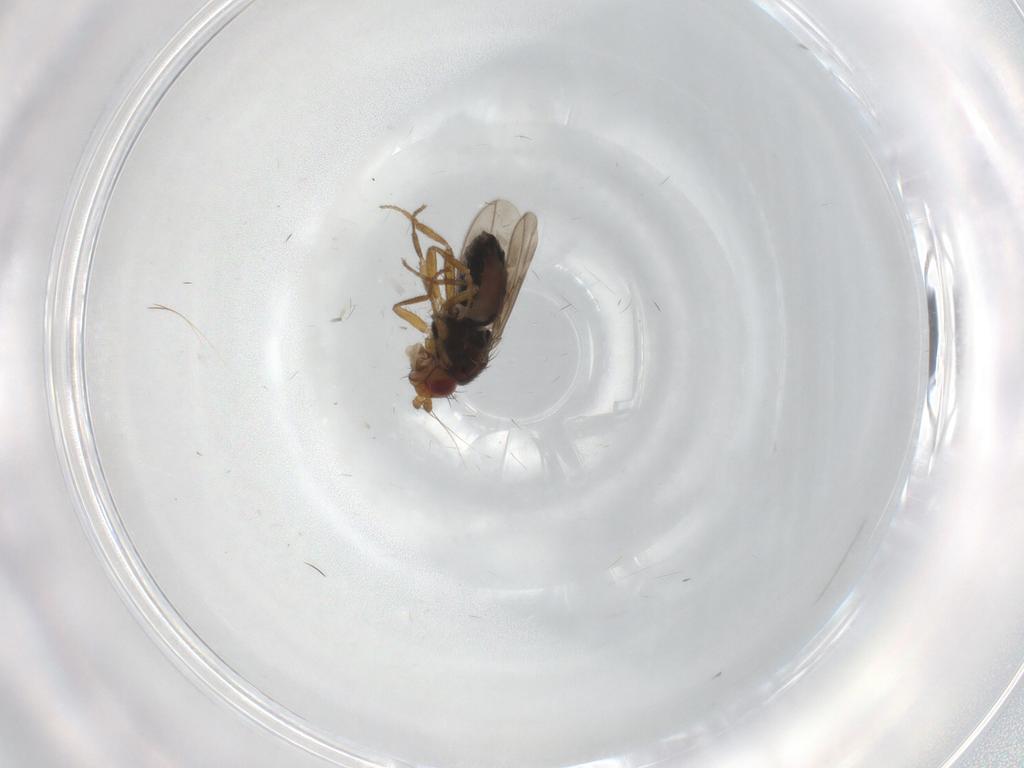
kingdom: Animalia
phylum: Arthropoda
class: Insecta
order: Diptera
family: Sphaeroceridae
